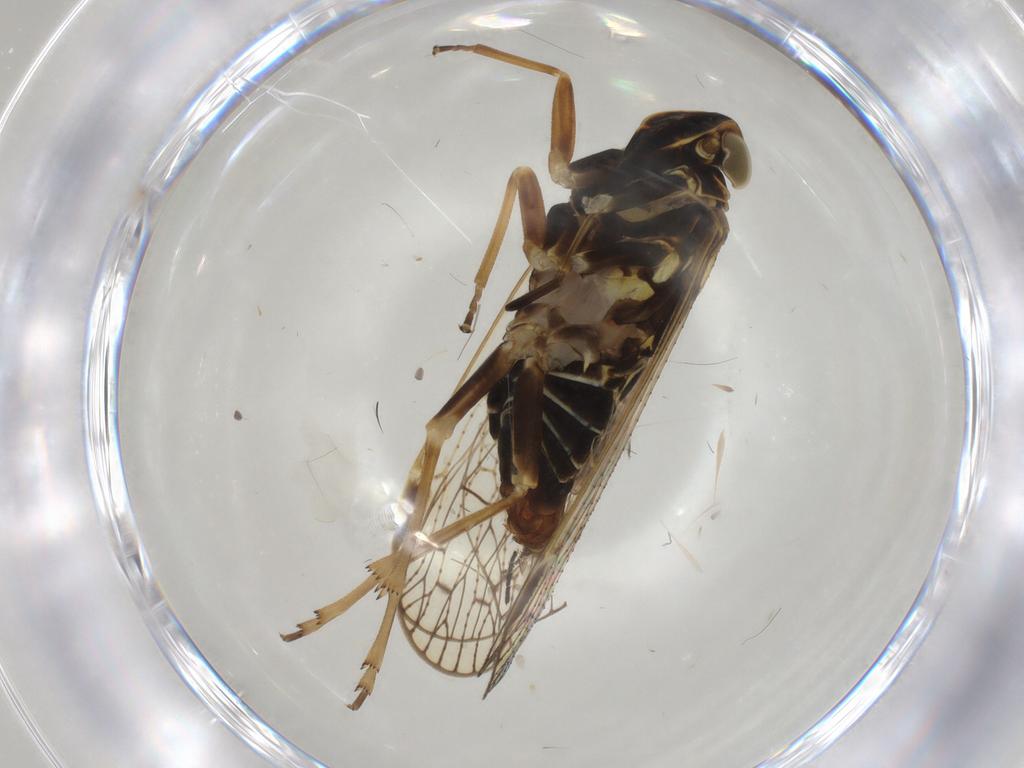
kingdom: Animalia
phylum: Arthropoda
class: Insecta
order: Hemiptera
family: Cixiidae
